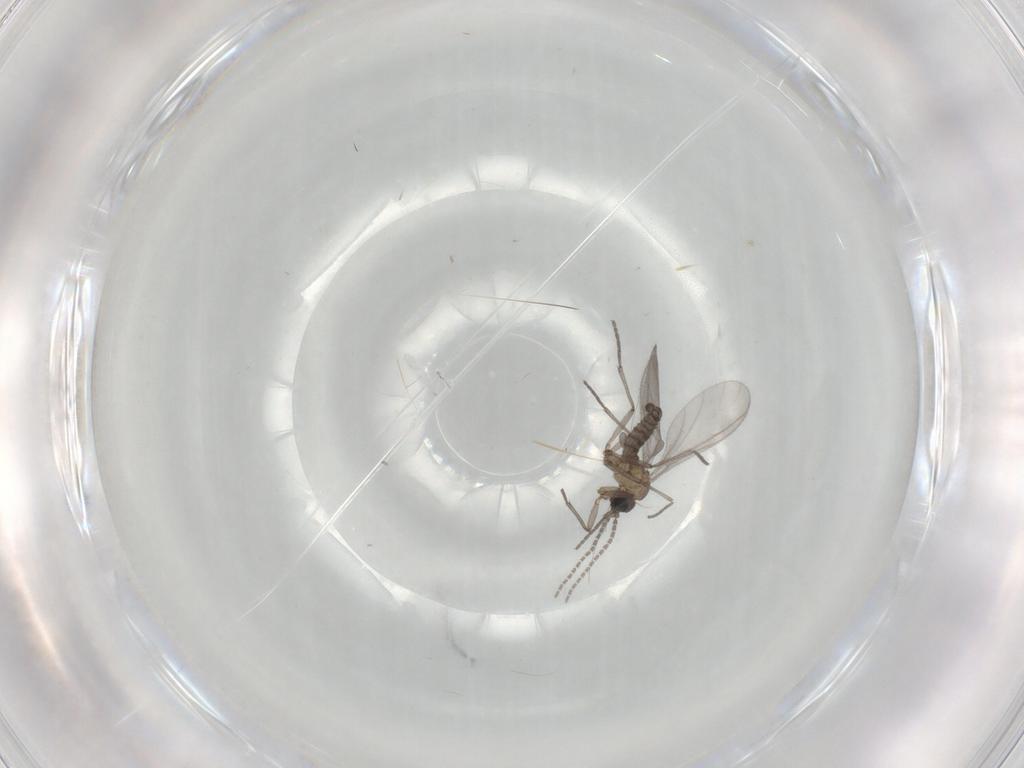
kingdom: Animalia
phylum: Arthropoda
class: Insecta
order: Diptera
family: Sciaridae
